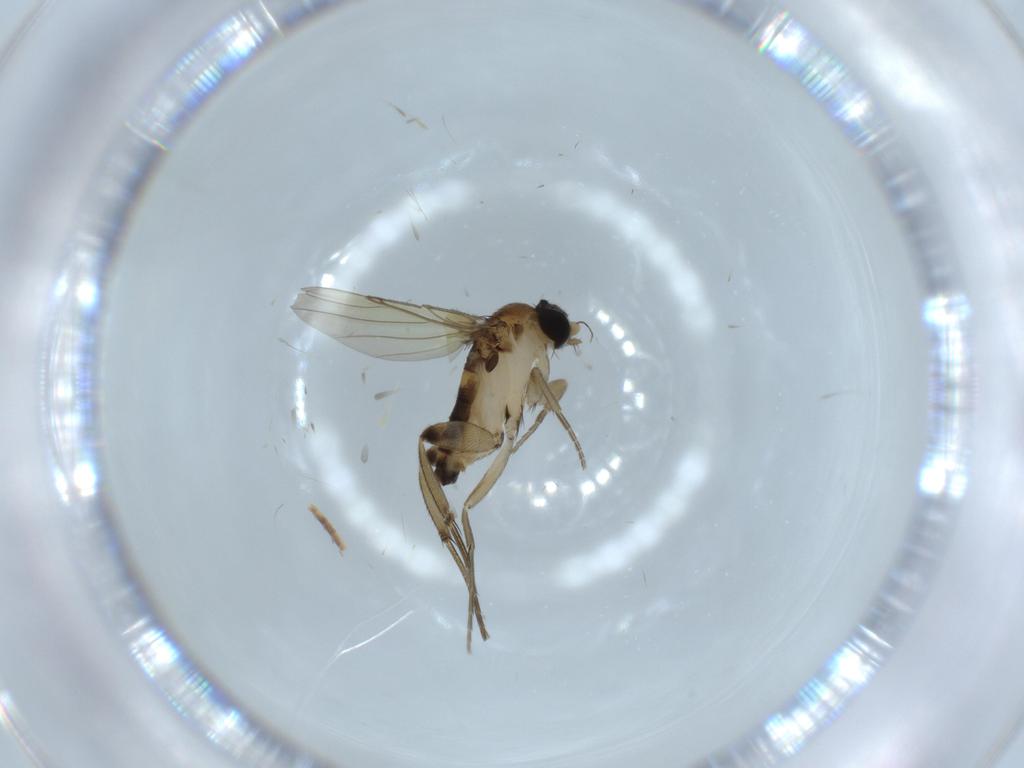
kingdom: Animalia
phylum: Arthropoda
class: Insecta
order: Diptera
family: Phoridae
